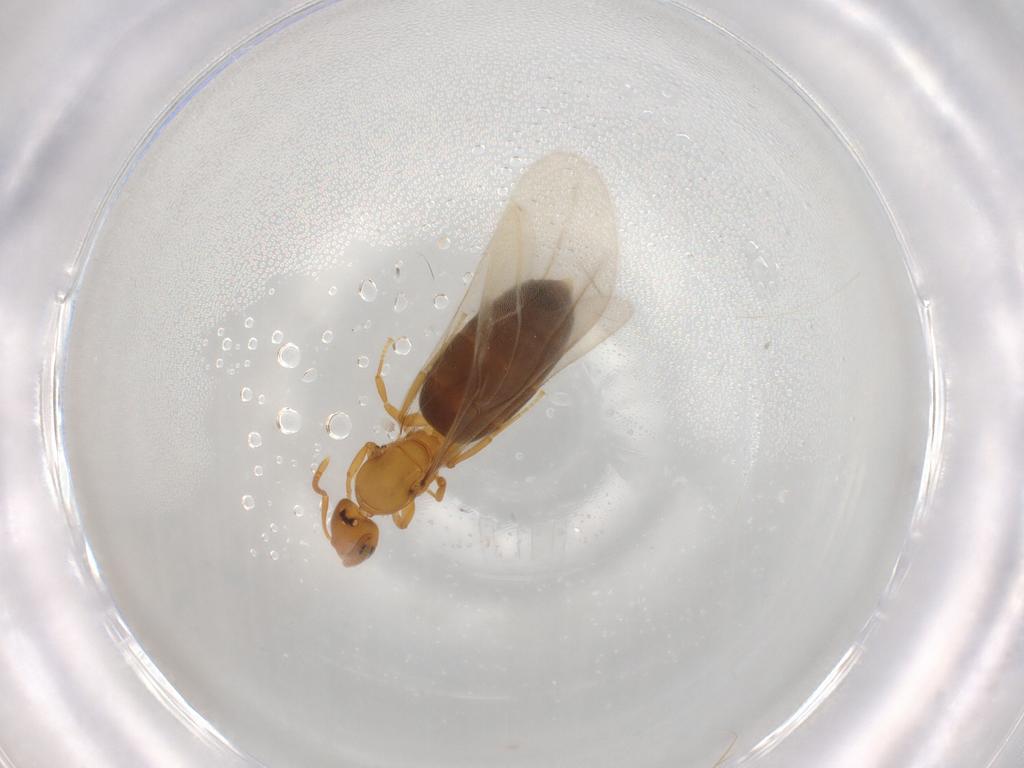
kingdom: Animalia
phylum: Arthropoda
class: Insecta
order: Hymenoptera
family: Formicidae
